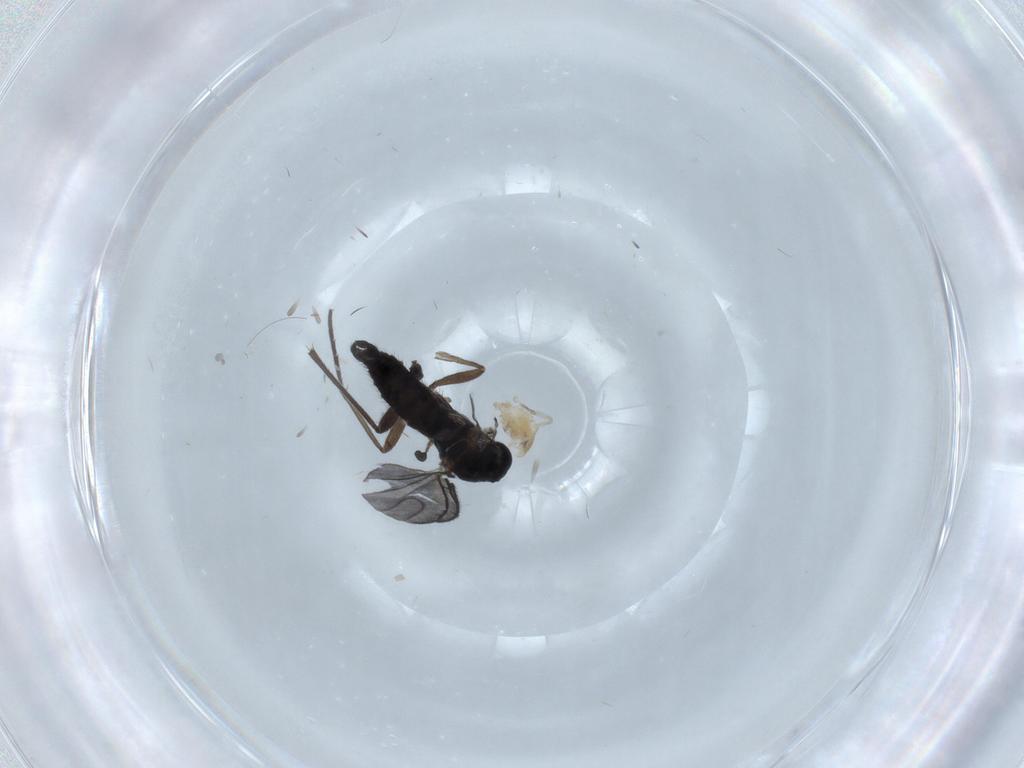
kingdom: Animalia
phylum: Arthropoda
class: Insecta
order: Diptera
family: Sciaridae
